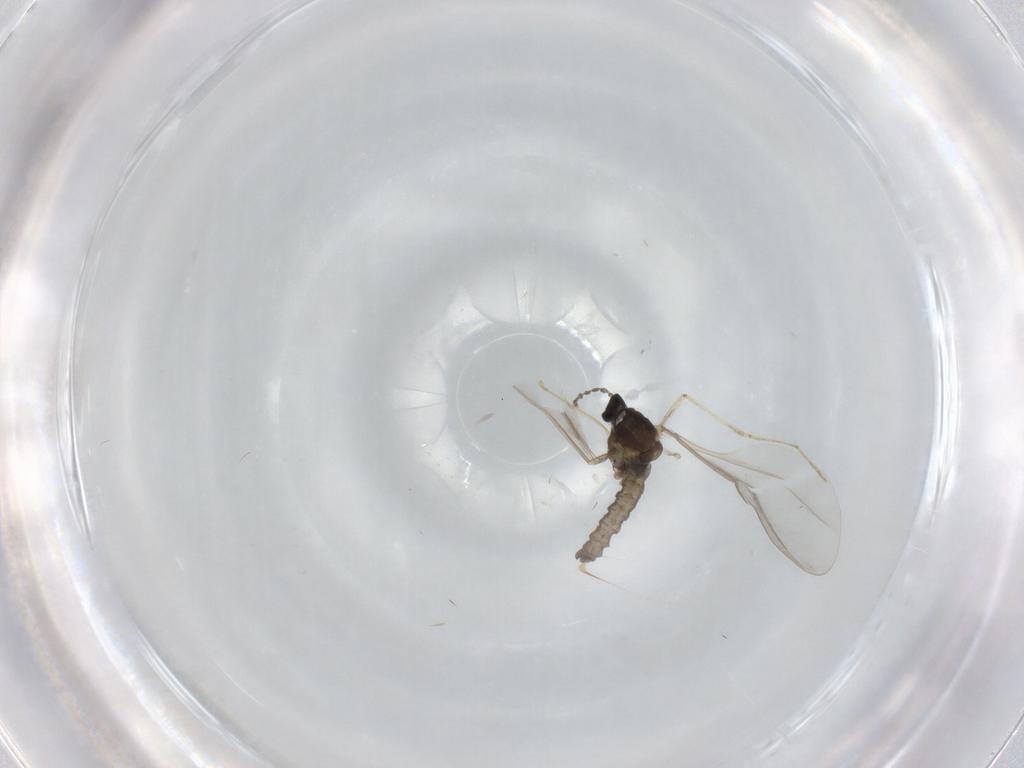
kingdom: Animalia
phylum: Arthropoda
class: Insecta
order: Diptera
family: Cecidomyiidae
